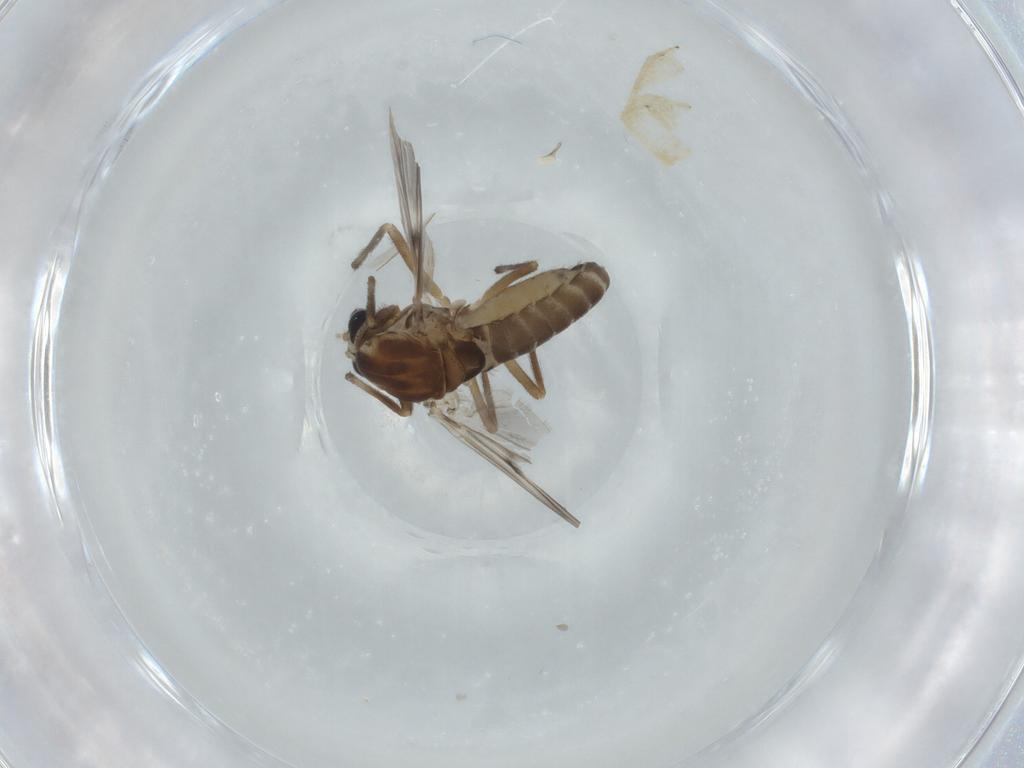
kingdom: Animalia
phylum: Arthropoda
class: Insecta
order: Diptera
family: Chironomidae
